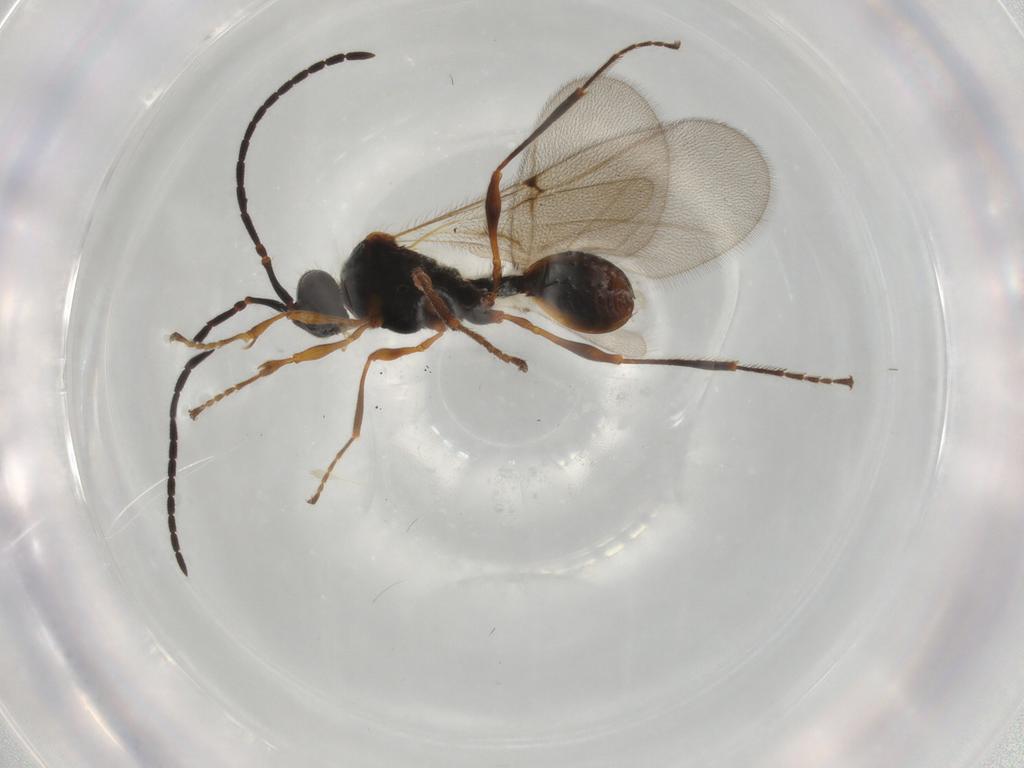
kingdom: Animalia
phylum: Arthropoda
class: Insecta
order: Hymenoptera
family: Diapriidae
